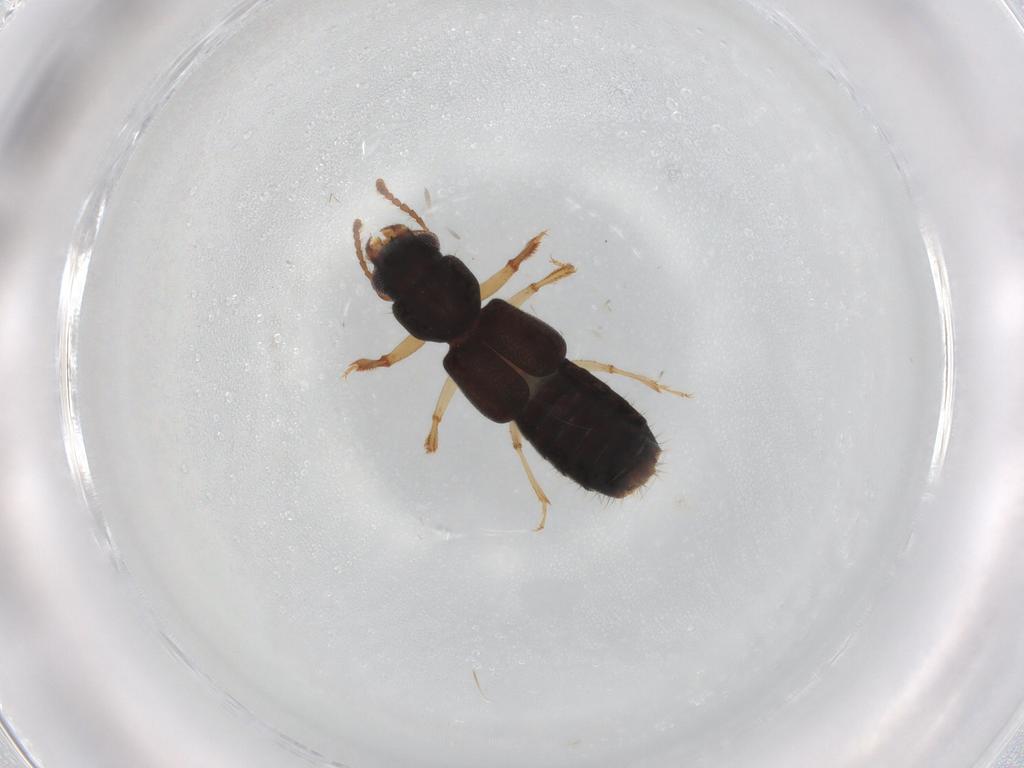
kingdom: Animalia
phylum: Arthropoda
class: Insecta
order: Coleoptera
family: Staphylinidae
